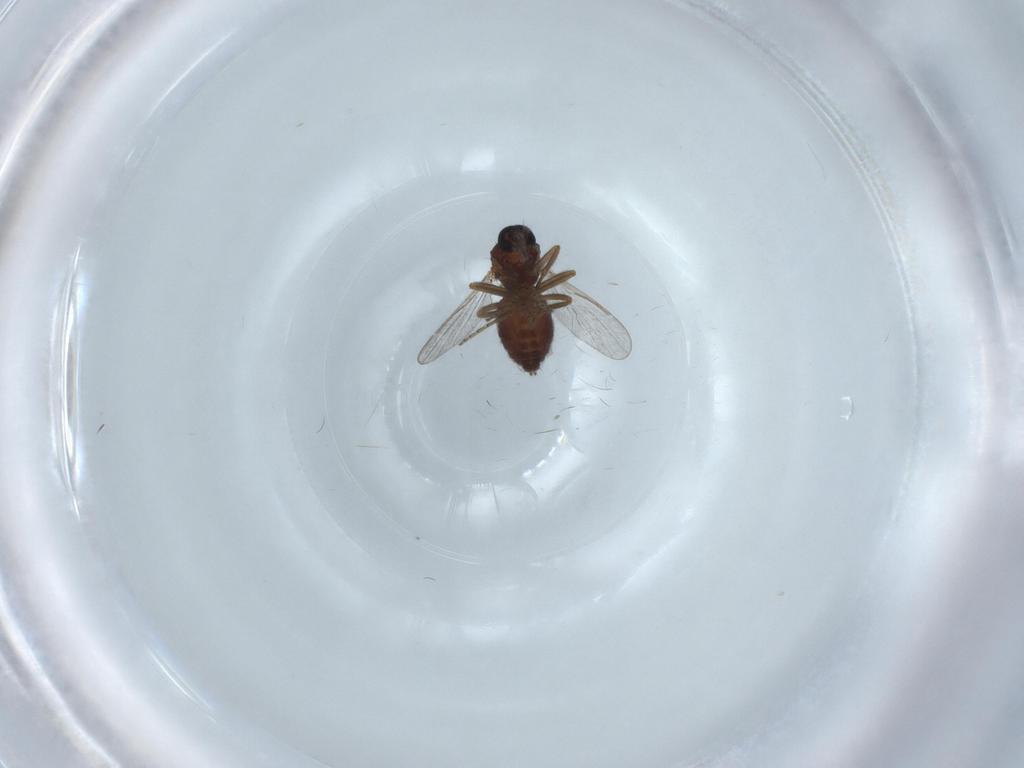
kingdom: Animalia
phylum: Arthropoda
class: Insecta
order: Diptera
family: Ceratopogonidae
